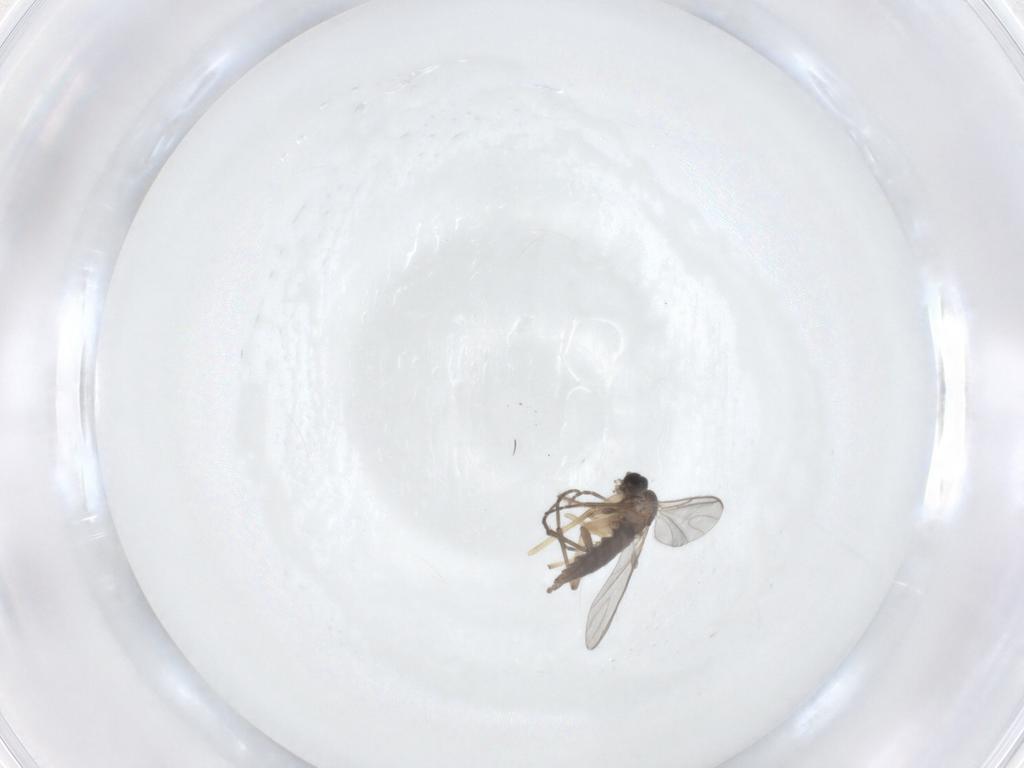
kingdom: Animalia
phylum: Arthropoda
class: Insecta
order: Diptera
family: Sciaridae
